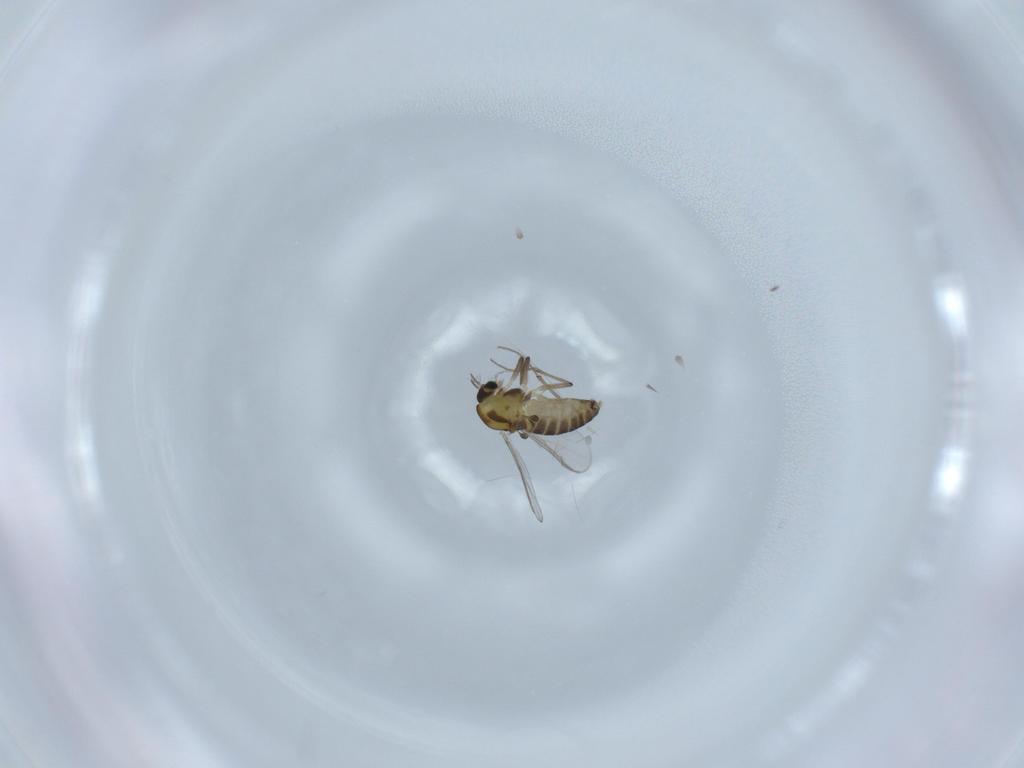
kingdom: Animalia
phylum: Arthropoda
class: Insecta
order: Diptera
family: Chironomidae
